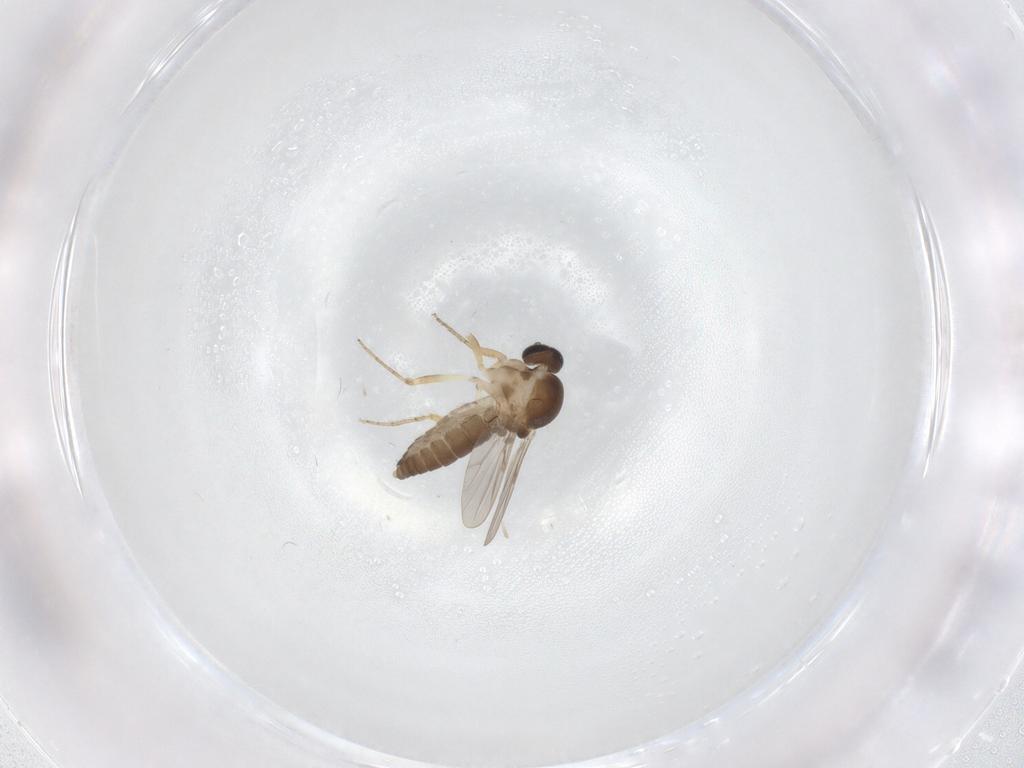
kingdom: Animalia
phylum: Arthropoda
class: Insecta
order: Diptera
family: Ceratopogonidae
